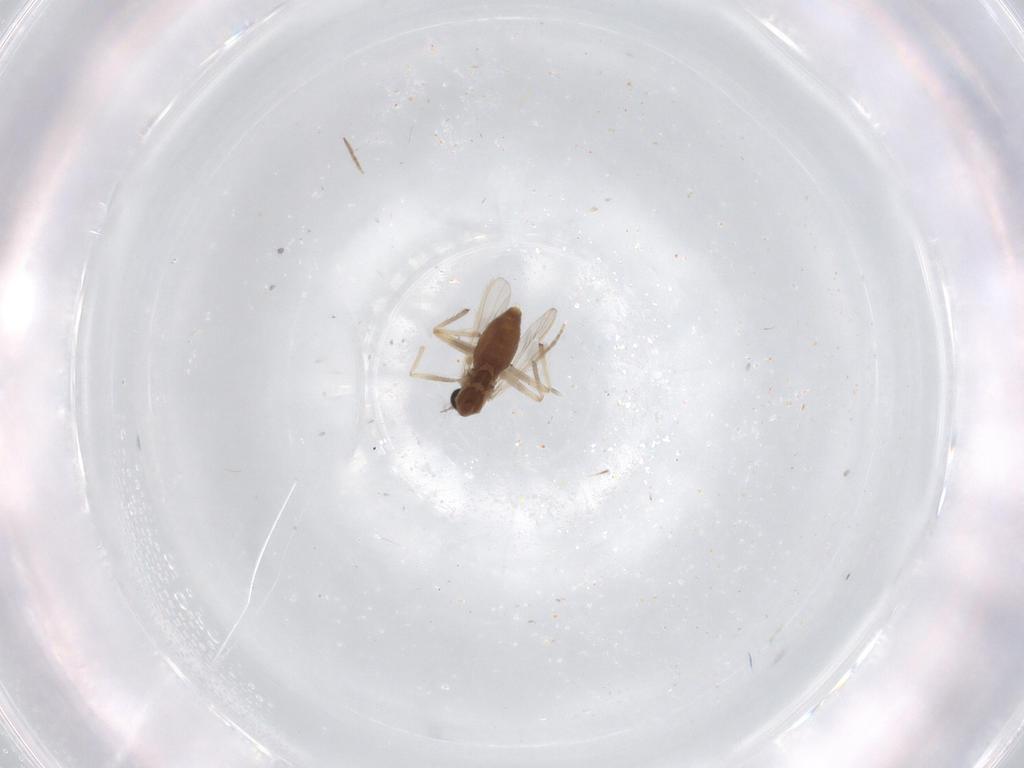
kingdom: Animalia
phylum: Arthropoda
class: Insecta
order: Diptera
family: Chironomidae
